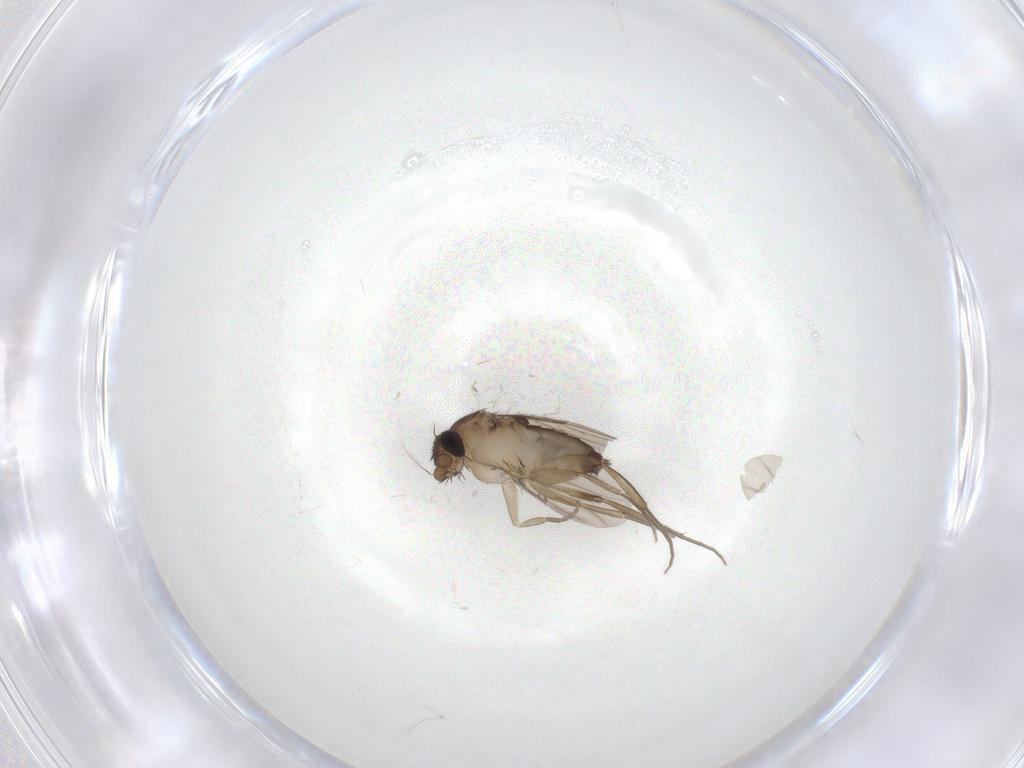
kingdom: Animalia
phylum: Arthropoda
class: Insecta
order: Diptera
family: Phoridae
